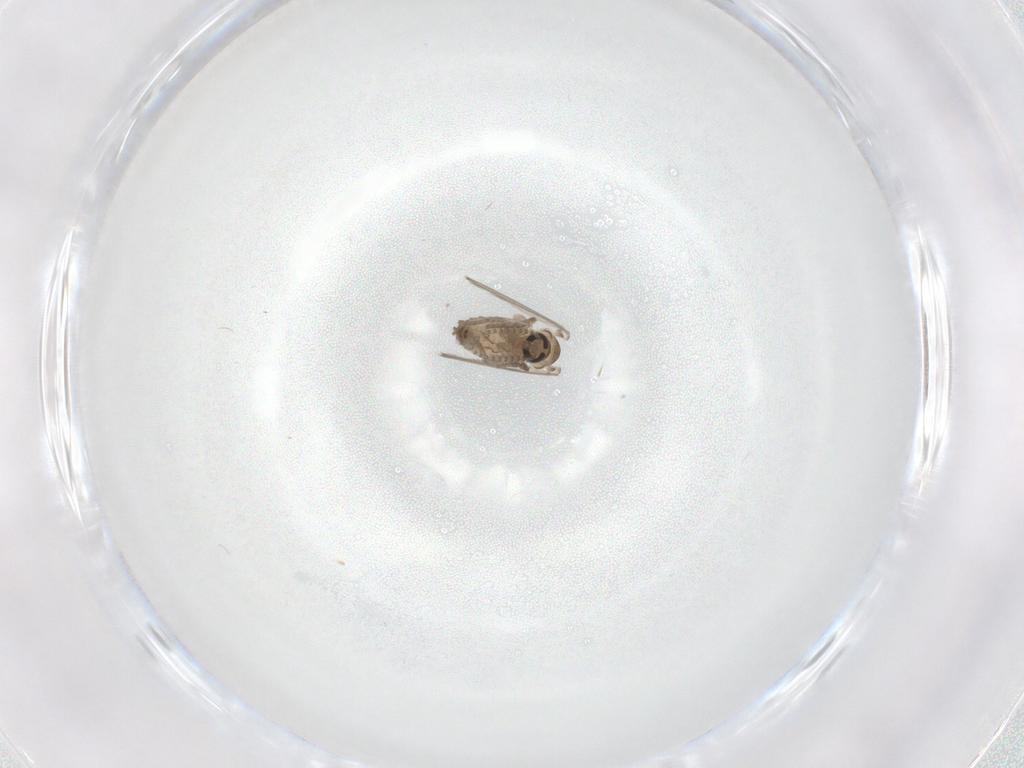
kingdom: Animalia
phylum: Arthropoda
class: Insecta
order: Diptera
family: Psychodidae
